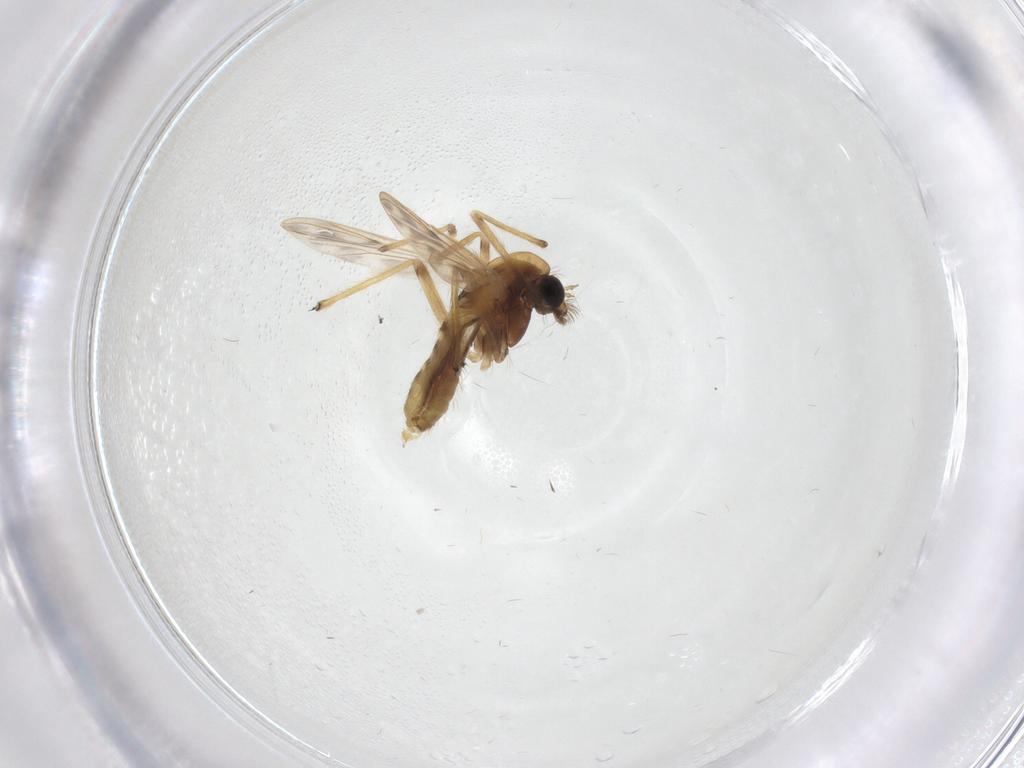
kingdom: Animalia
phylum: Arthropoda
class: Insecta
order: Diptera
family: Chironomidae
